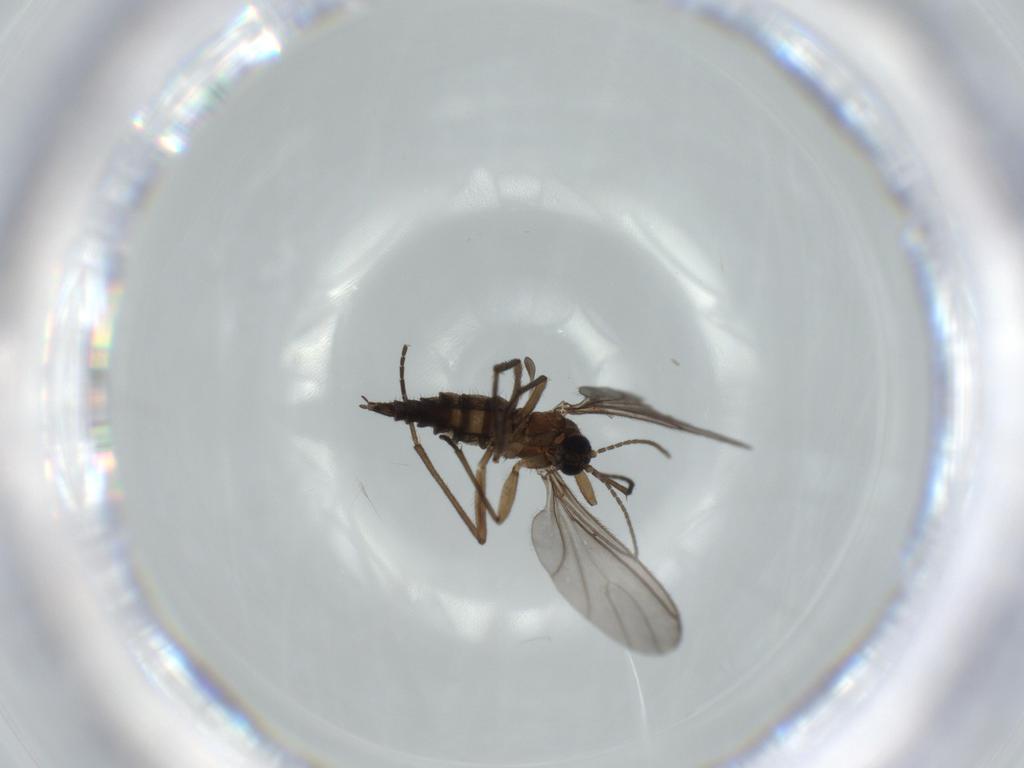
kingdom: Animalia
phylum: Arthropoda
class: Insecta
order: Diptera
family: Sciaridae
